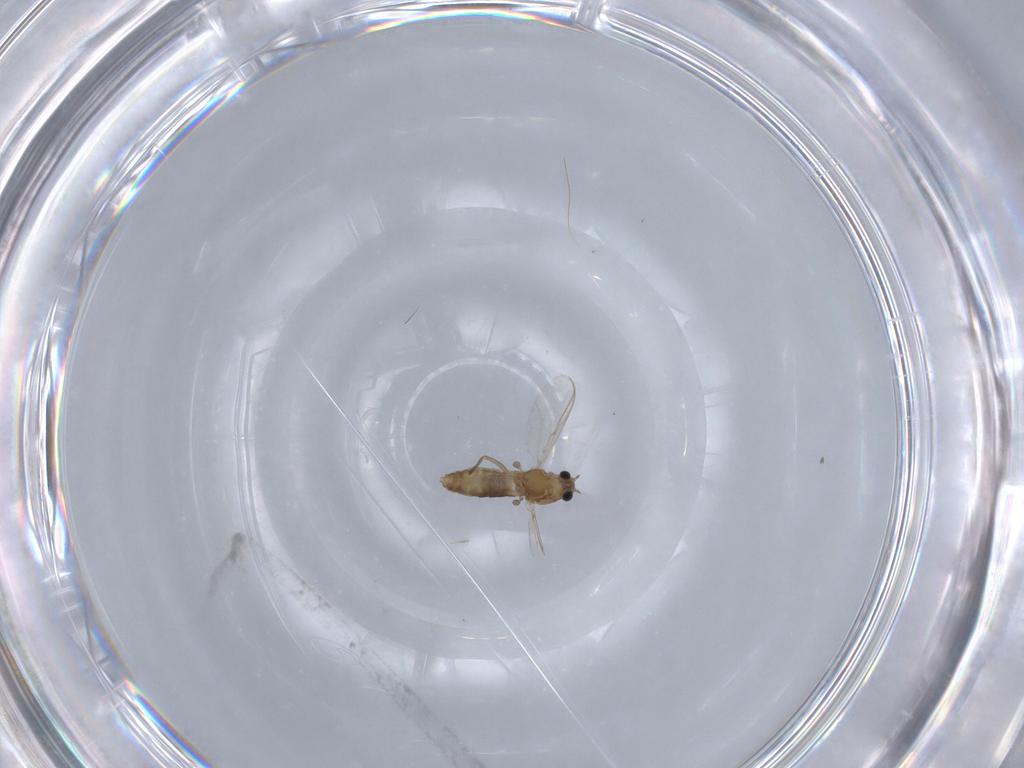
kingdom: Animalia
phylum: Arthropoda
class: Insecta
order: Diptera
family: Chironomidae
